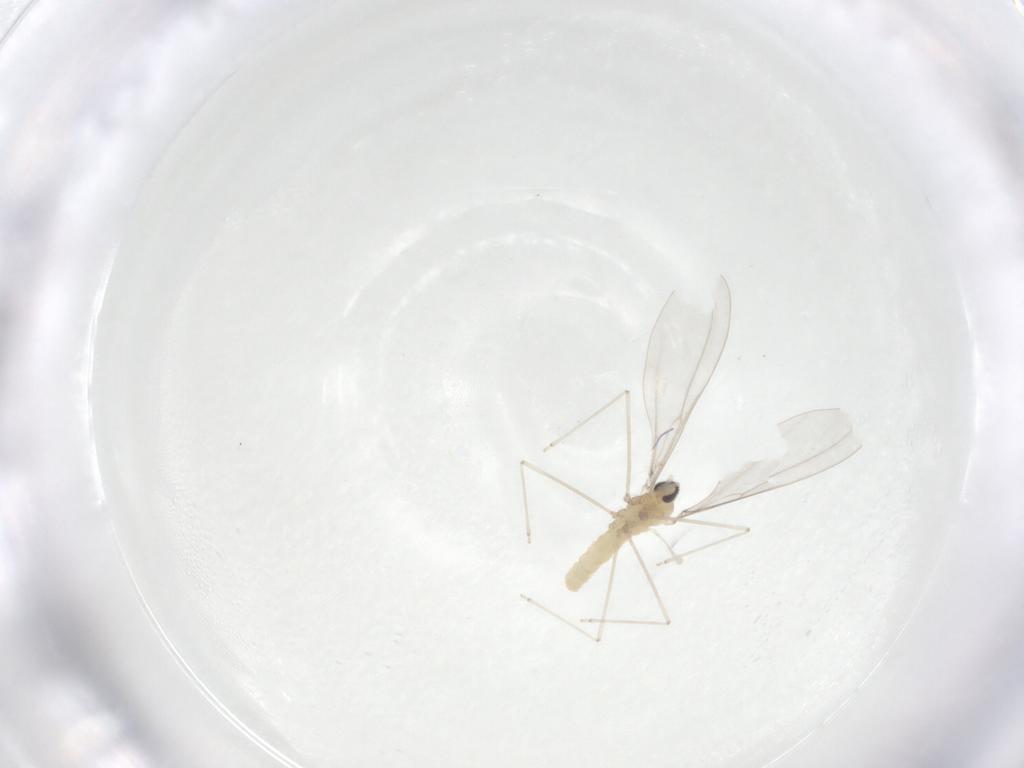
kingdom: Animalia
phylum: Arthropoda
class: Insecta
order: Diptera
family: Cecidomyiidae
